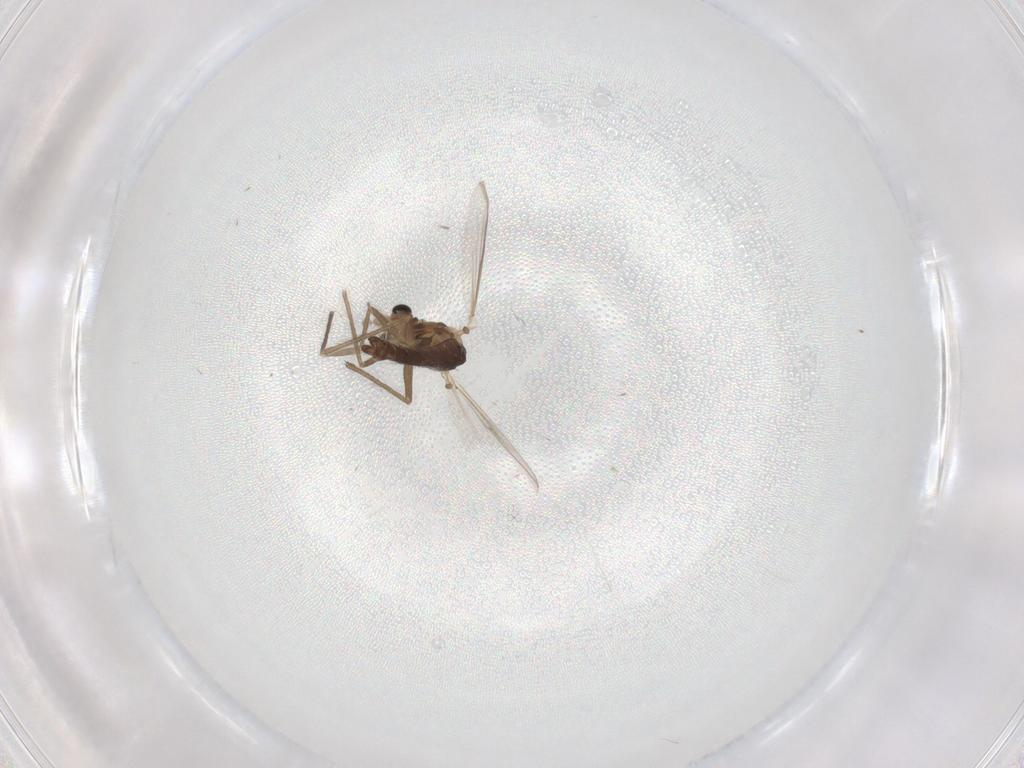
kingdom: Animalia
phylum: Arthropoda
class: Insecta
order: Diptera
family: Chironomidae
